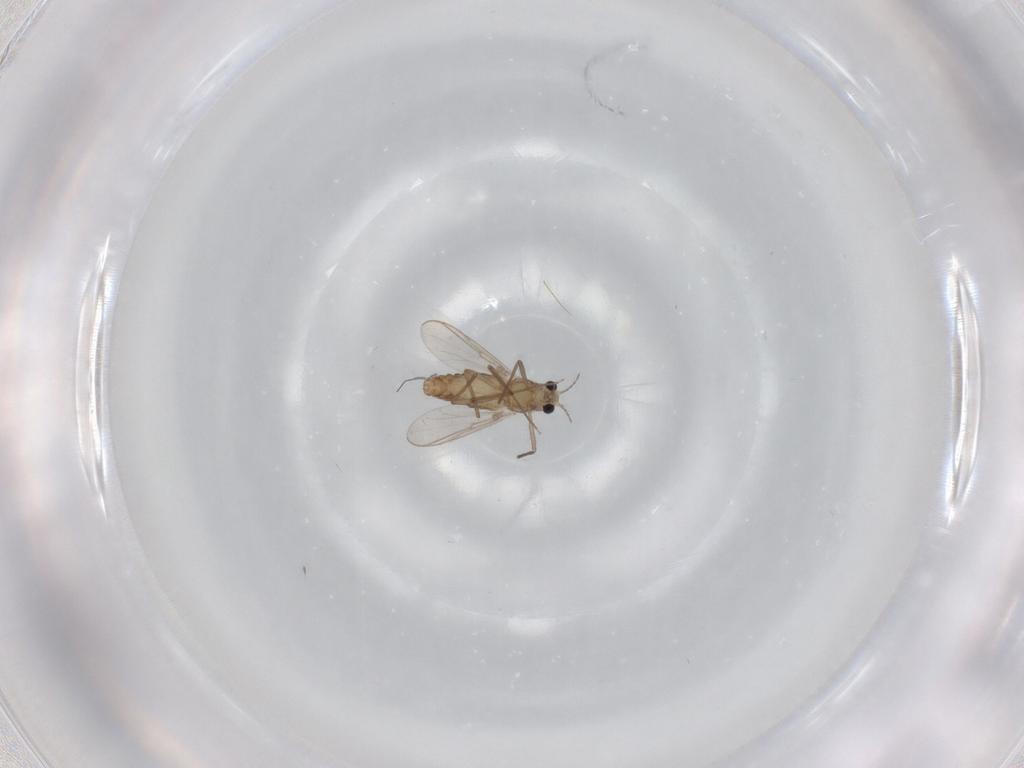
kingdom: Animalia
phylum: Arthropoda
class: Insecta
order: Diptera
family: Chironomidae
